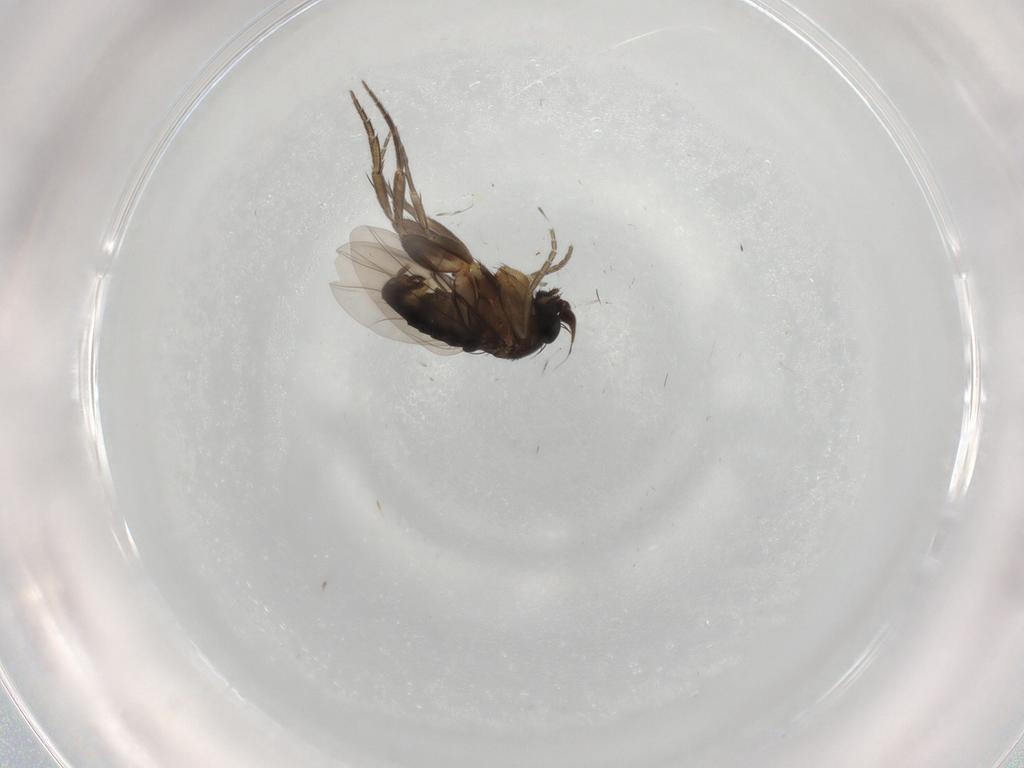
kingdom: Animalia
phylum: Arthropoda
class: Insecta
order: Diptera
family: Phoridae
